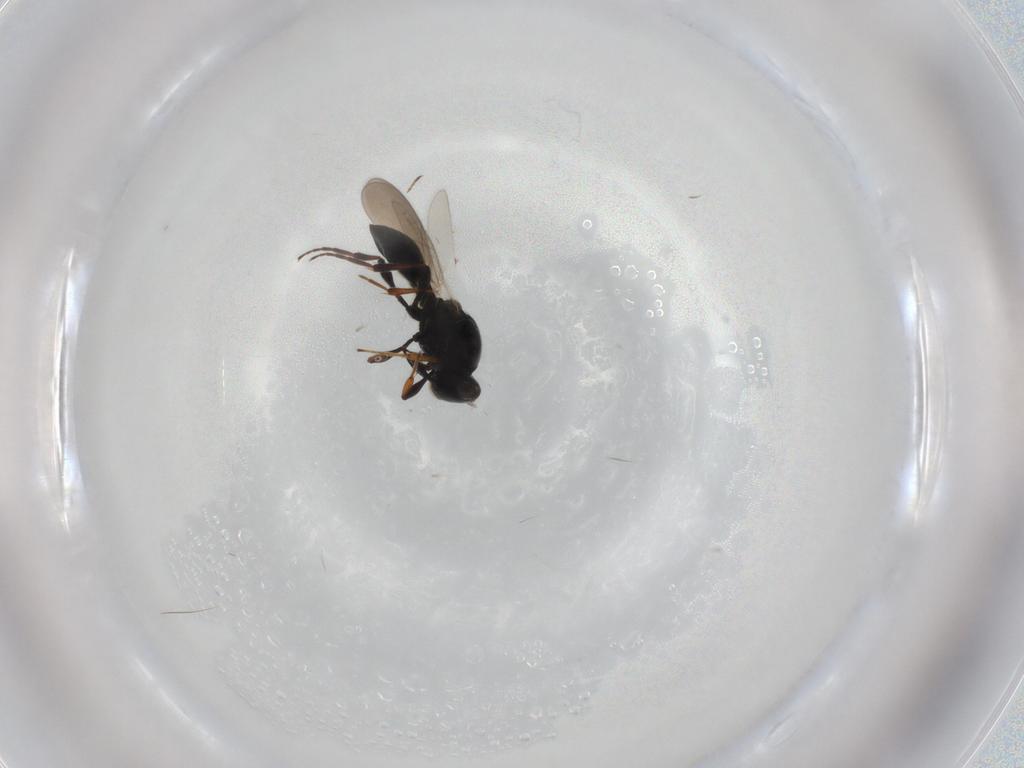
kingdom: Animalia
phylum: Arthropoda
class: Insecta
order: Hymenoptera
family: Platygastridae
